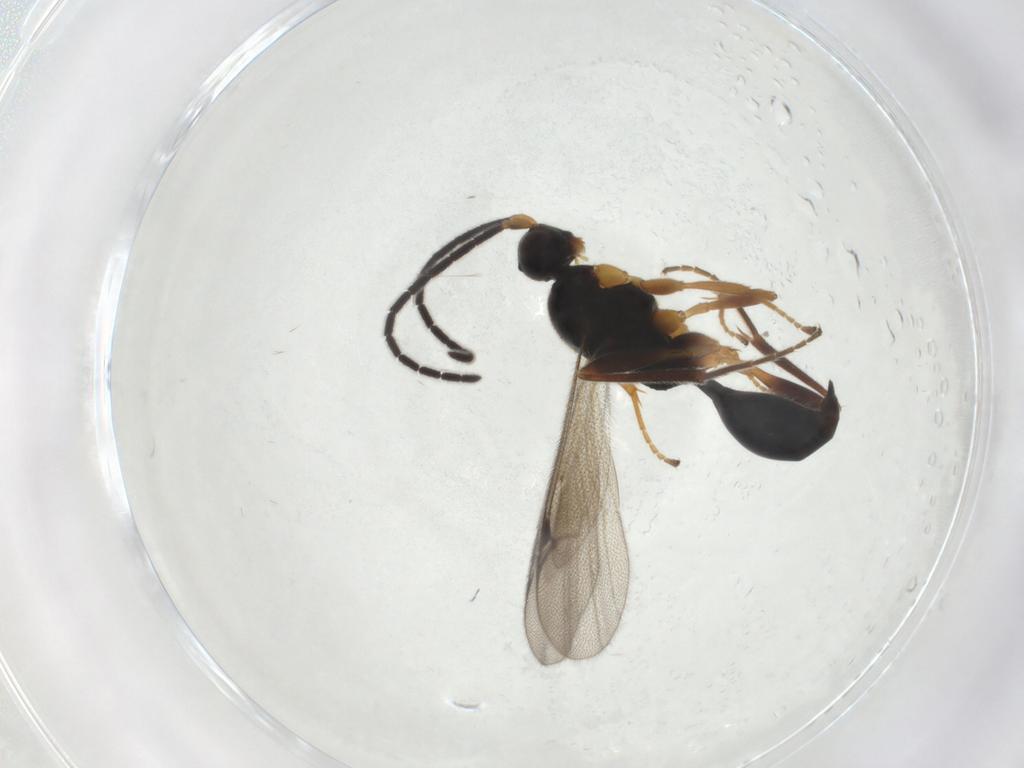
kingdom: Animalia
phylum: Arthropoda
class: Insecta
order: Hymenoptera
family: Proctotrupidae
